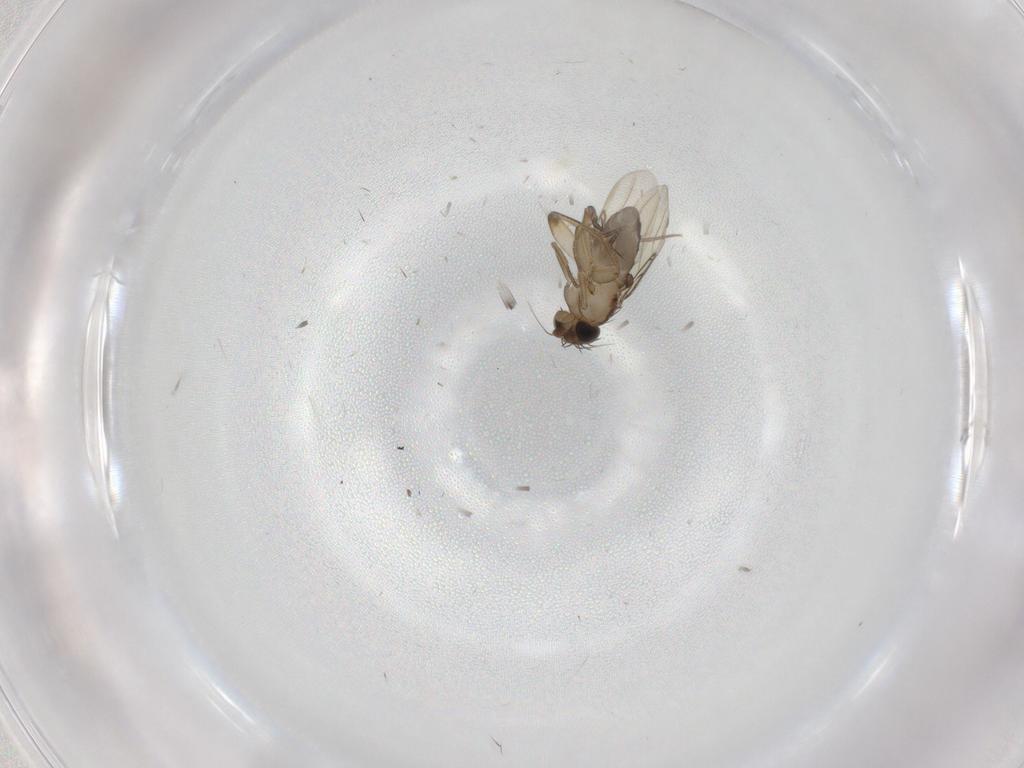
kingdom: Animalia
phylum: Arthropoda
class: Insecta
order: Diptera
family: Phoridae
